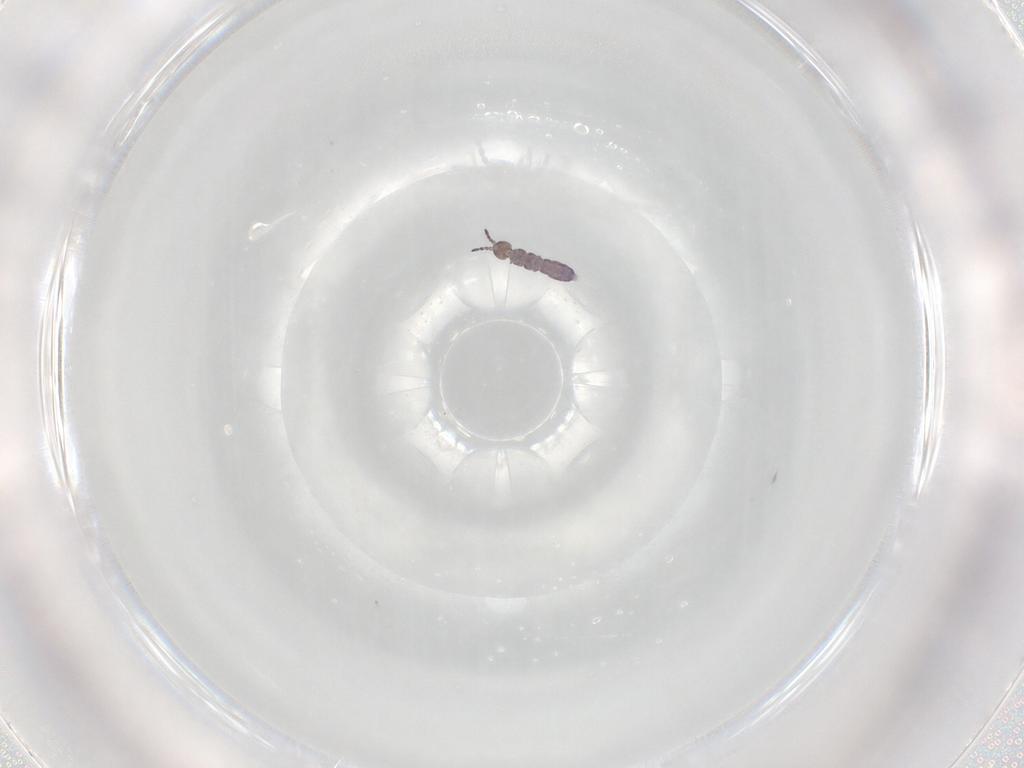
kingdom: Animalia
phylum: Arthropoda
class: Collembola
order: Entomobryomorpha
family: Isotomidae
